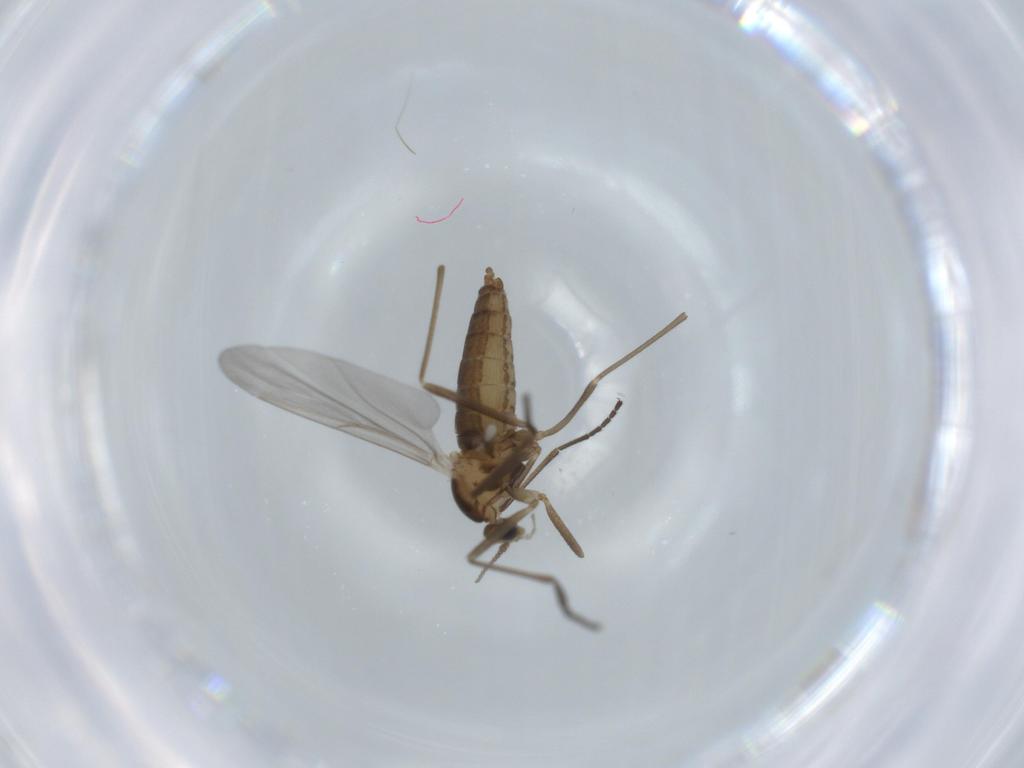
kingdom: Animalia
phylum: Arthropoda
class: Insecta
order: Diptera
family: Cecidomyiidae
